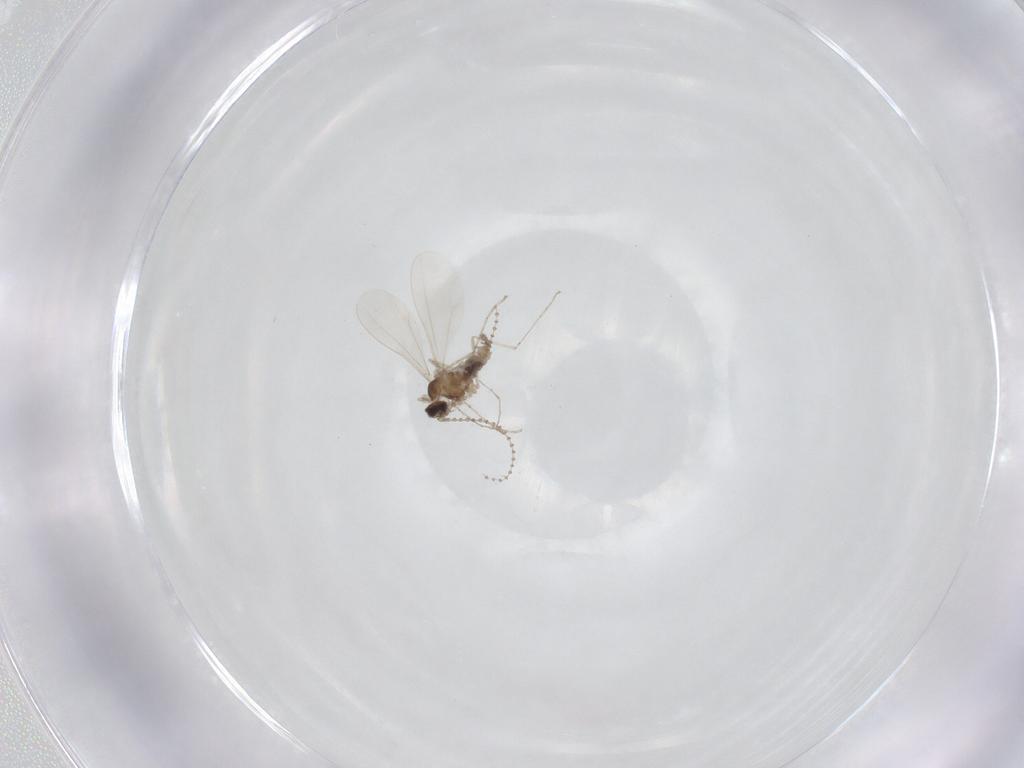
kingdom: Animalia
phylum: Arthropoda
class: Insecta
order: Diptera
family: Cecidomyiidae
